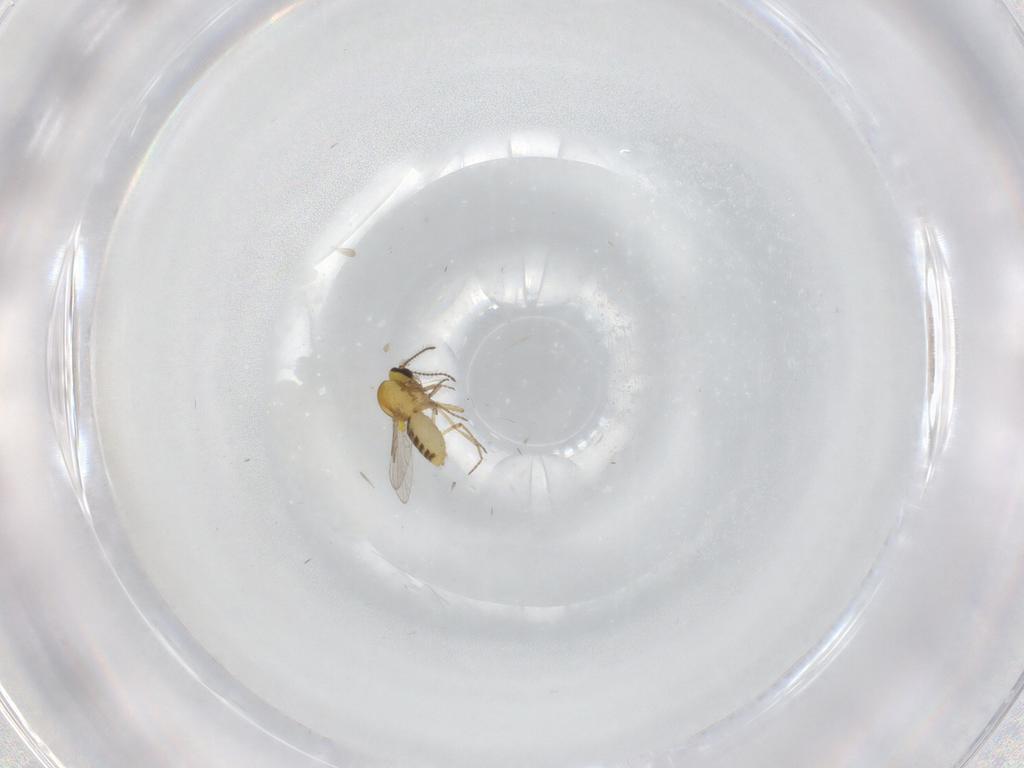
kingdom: Animalia
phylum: Arthropoda
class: Insecta
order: Diptera
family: Ceratopogonidae
